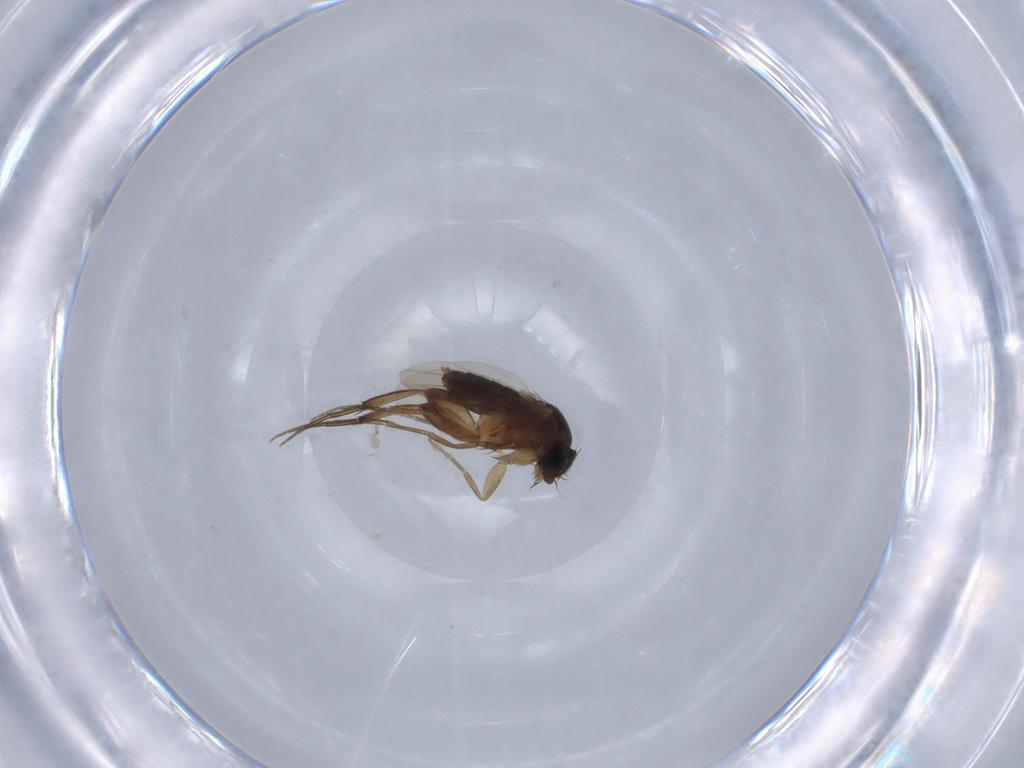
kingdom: Animalia
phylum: Arthropoda
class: Insecta
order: Diptera
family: Phoridae
